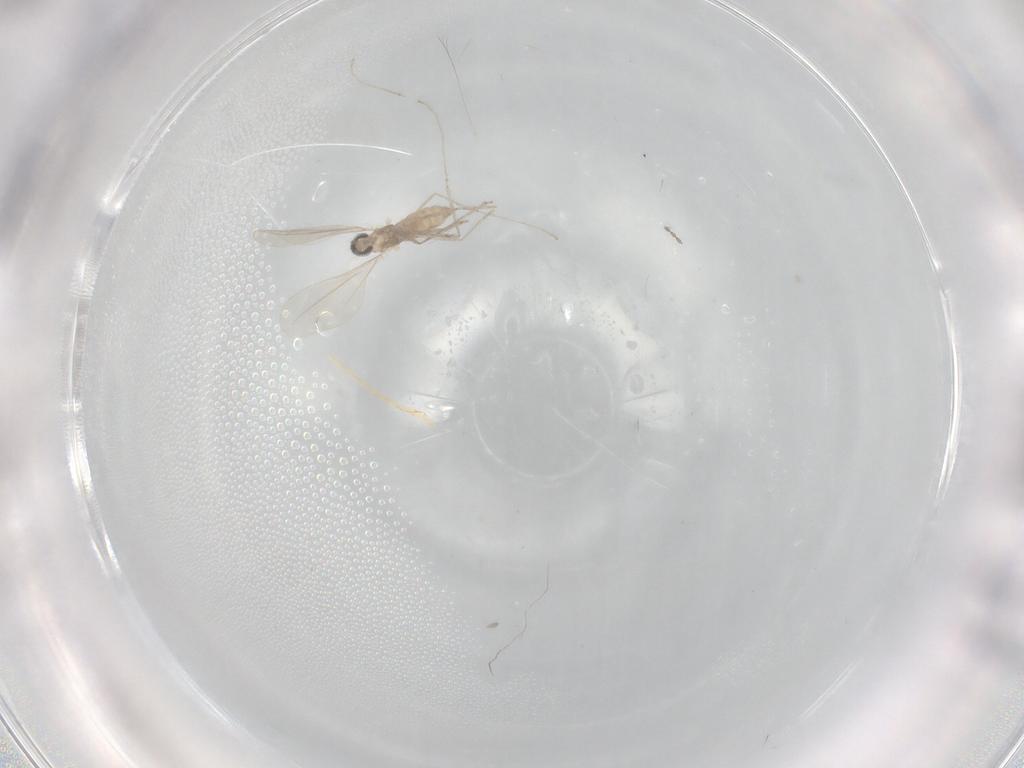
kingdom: Animalia
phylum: Arthropoda
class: Insecta
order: Diptera
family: Cecidomyiidae
